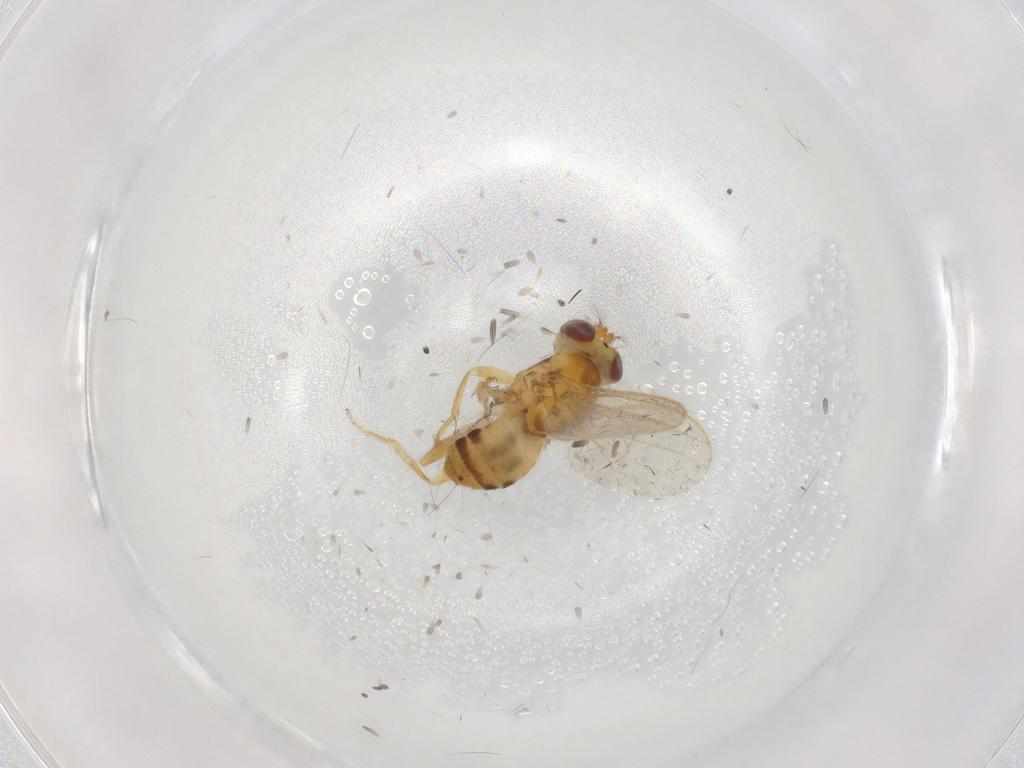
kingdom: Animalia
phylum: Arthropoda
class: Insecta
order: Diptera
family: Periscelididae
